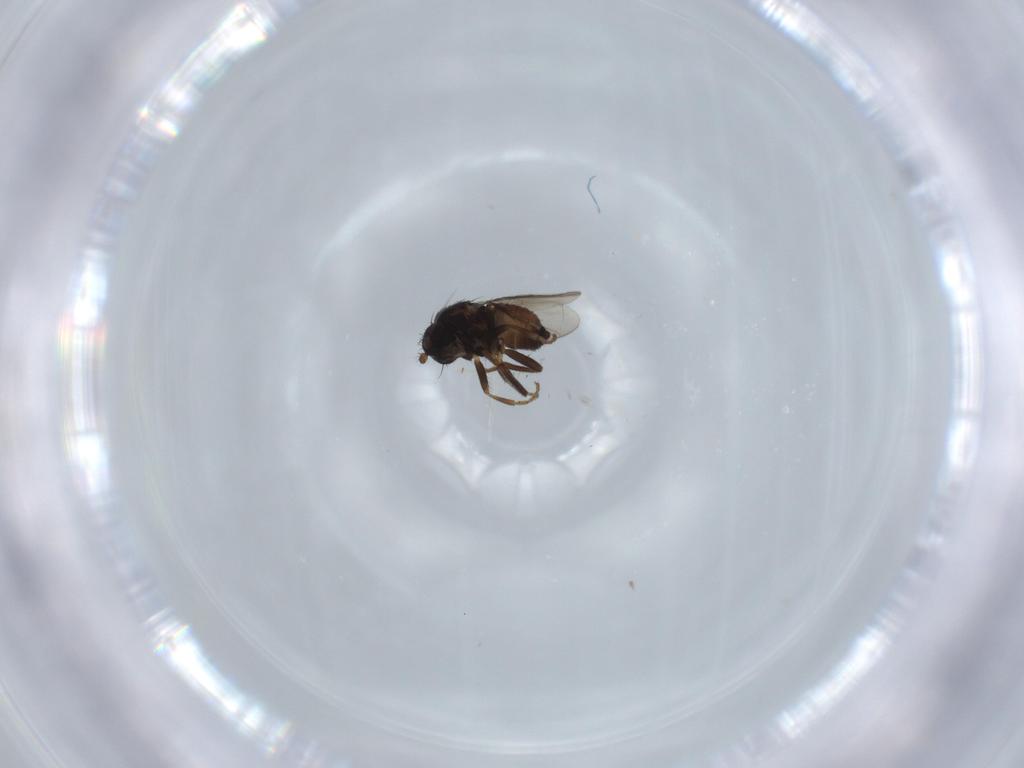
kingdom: Animalia
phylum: Arthropoda
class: Insecta
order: Diptera
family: Sphaeroceridae
